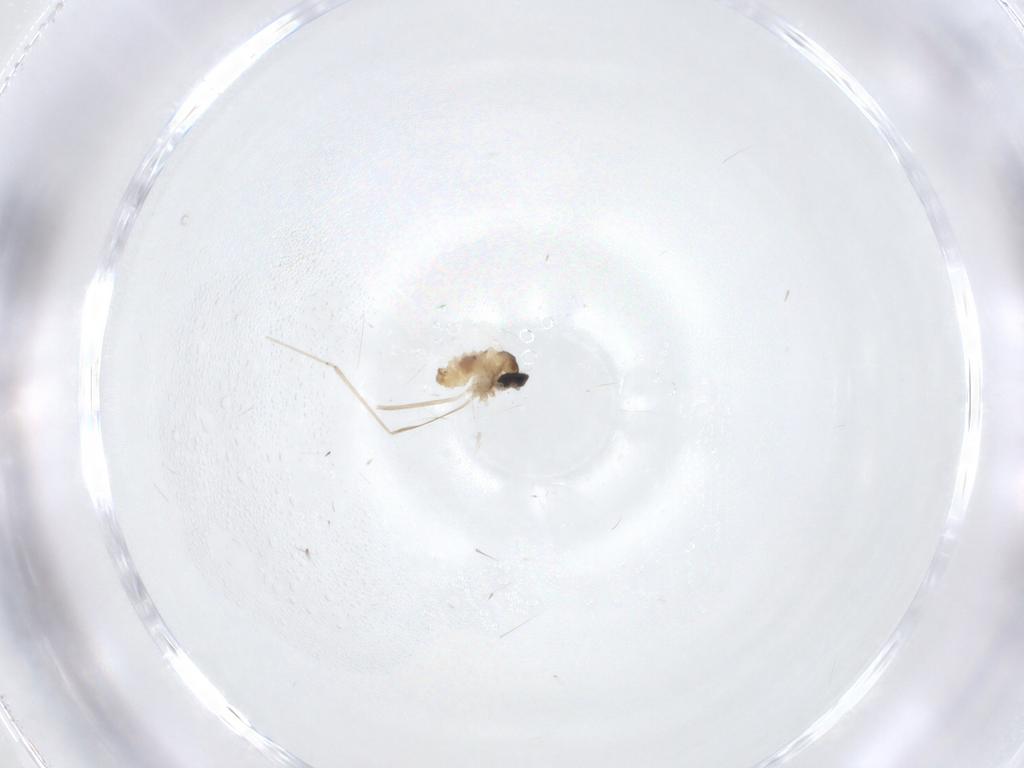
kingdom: Animalia
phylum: Arthropoda
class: Insecta
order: Diptera
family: Cecidomyiidae
